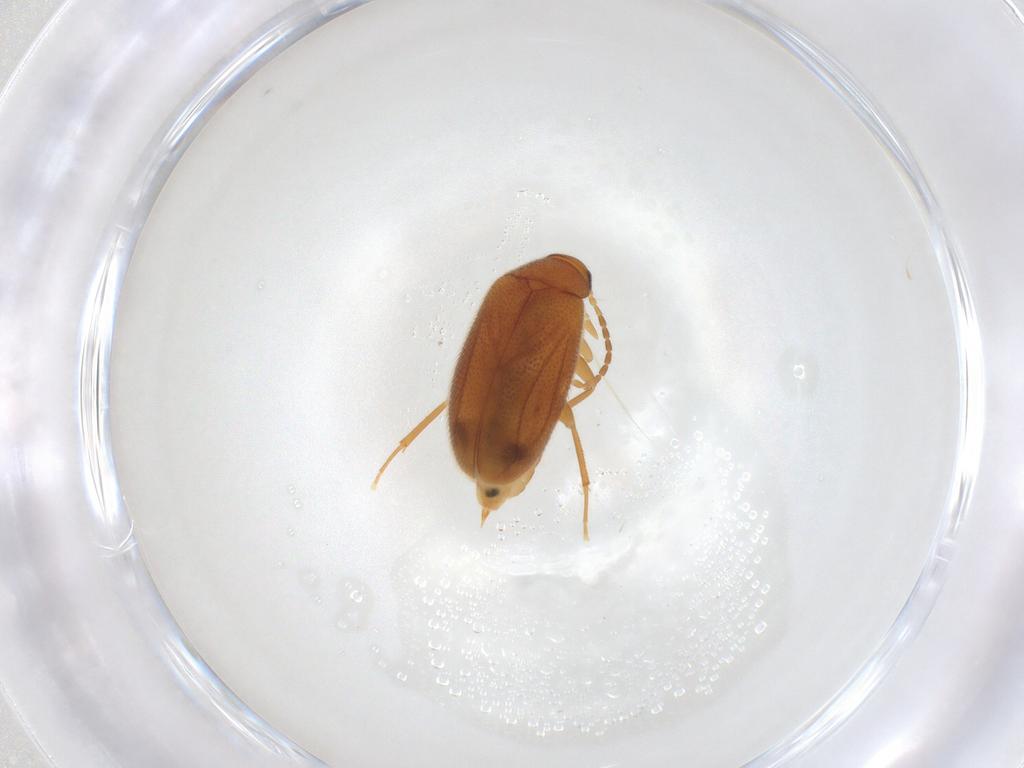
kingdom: Animalia
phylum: Arthropoda
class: Insecta
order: Coleoptera
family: Scraptiidae
